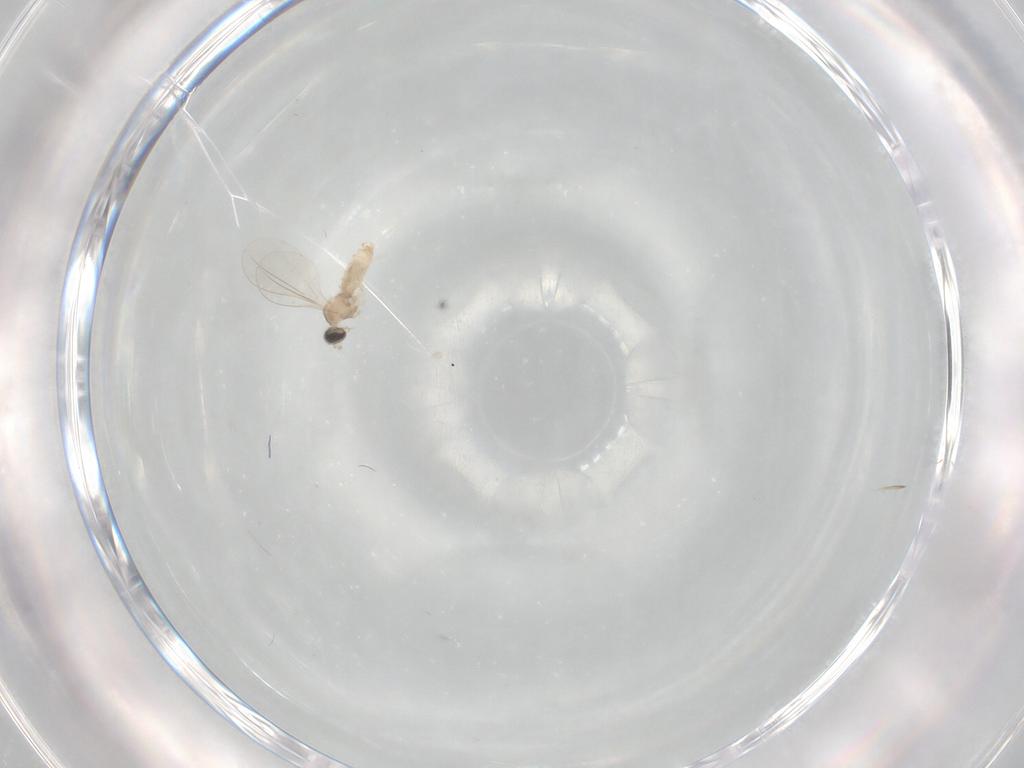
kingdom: Animalia
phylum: Arthropoda
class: Insecta
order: Diptera
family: Cecidomyiidae
